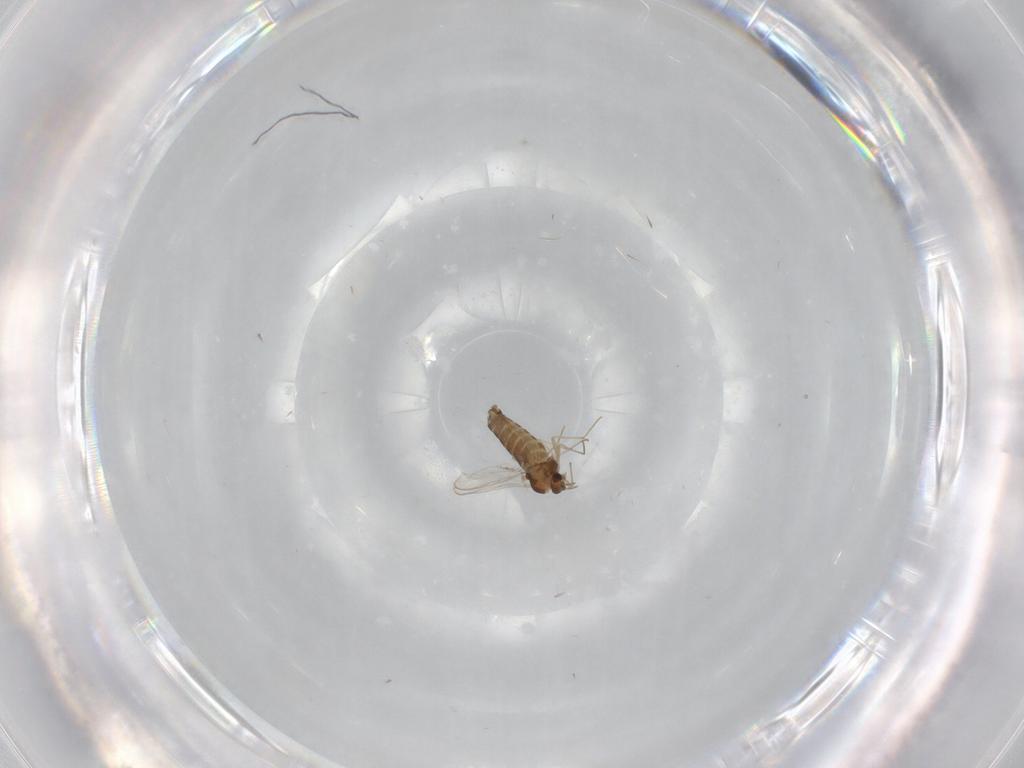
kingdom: Animalia
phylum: Arthropoda
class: Insecta
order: Diptera
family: Chironomidae
